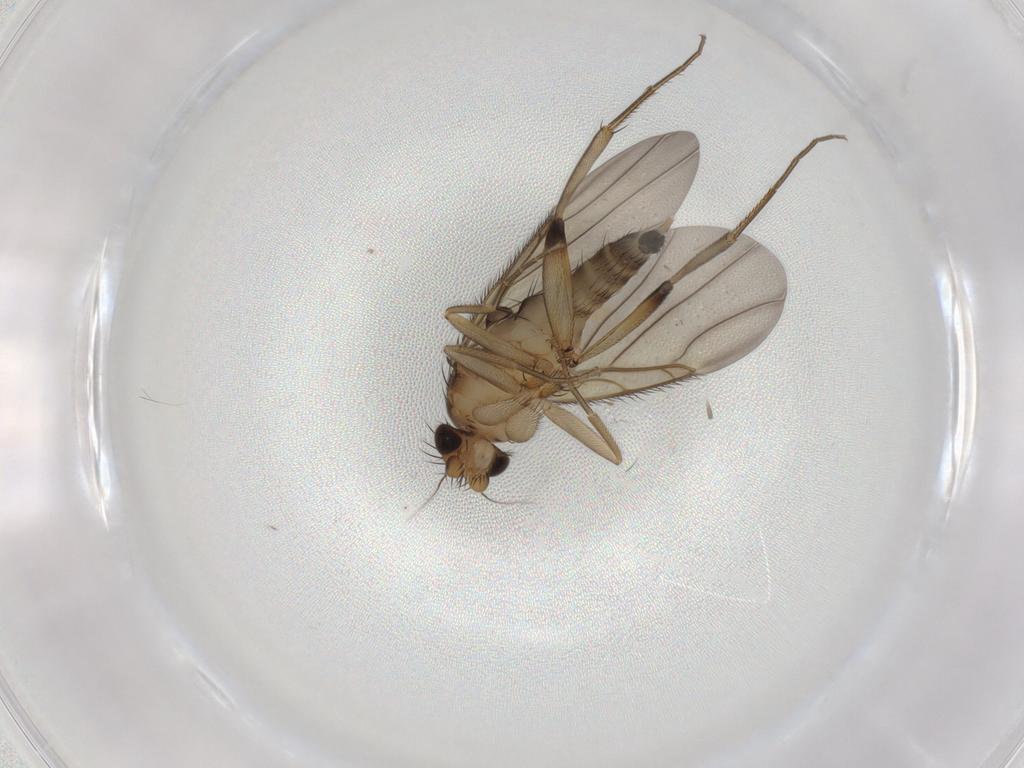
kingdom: Animalia
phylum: Arthropoda
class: Insecta
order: Diptera
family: Phoridae
